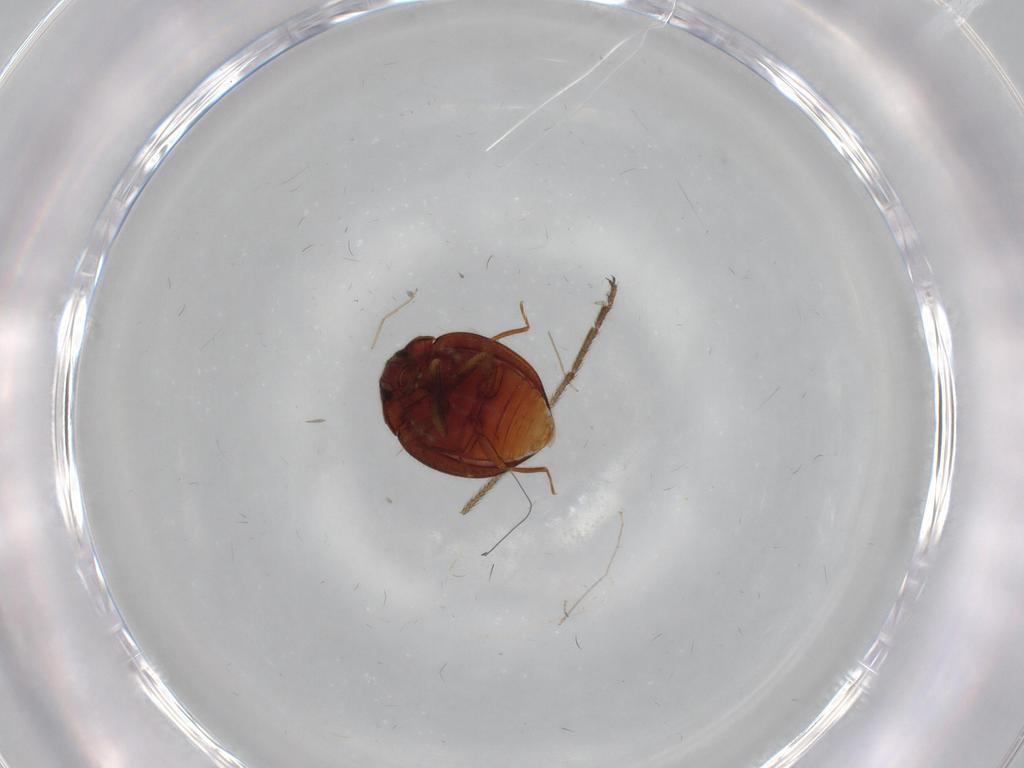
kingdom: Animalia
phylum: Arthropoda
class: Insecta
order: Coleoptera
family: Anamorphidae
